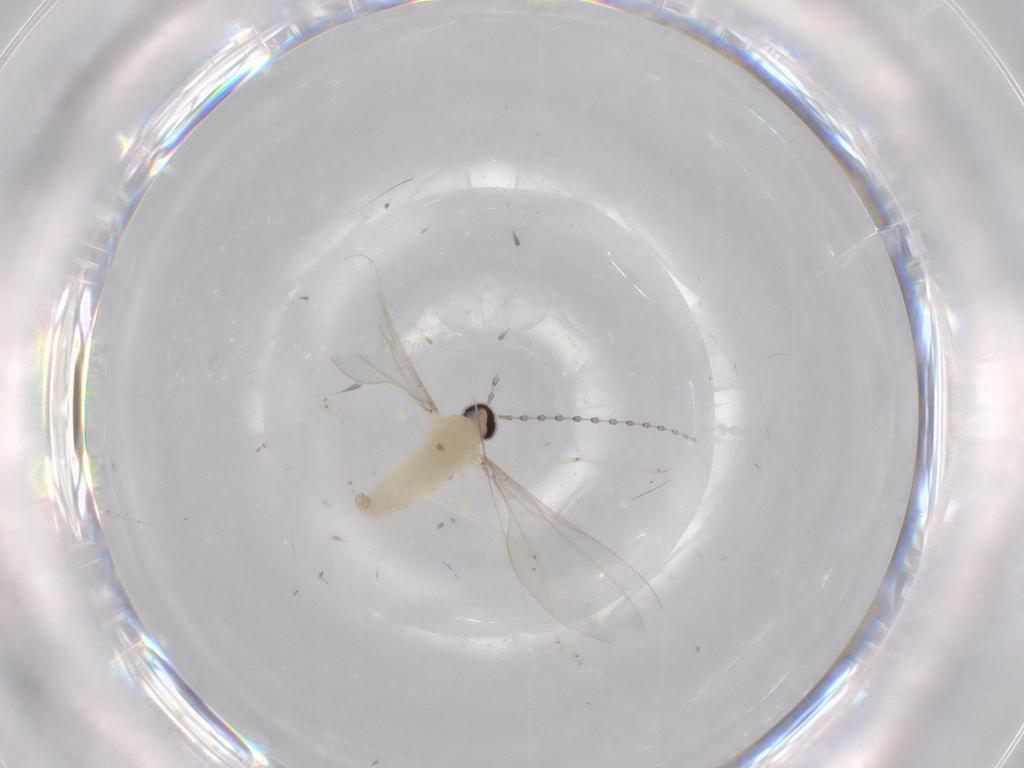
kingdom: Animalia
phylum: Arthropoda
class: Insecta
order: Diptera
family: Cecidomyiidae
